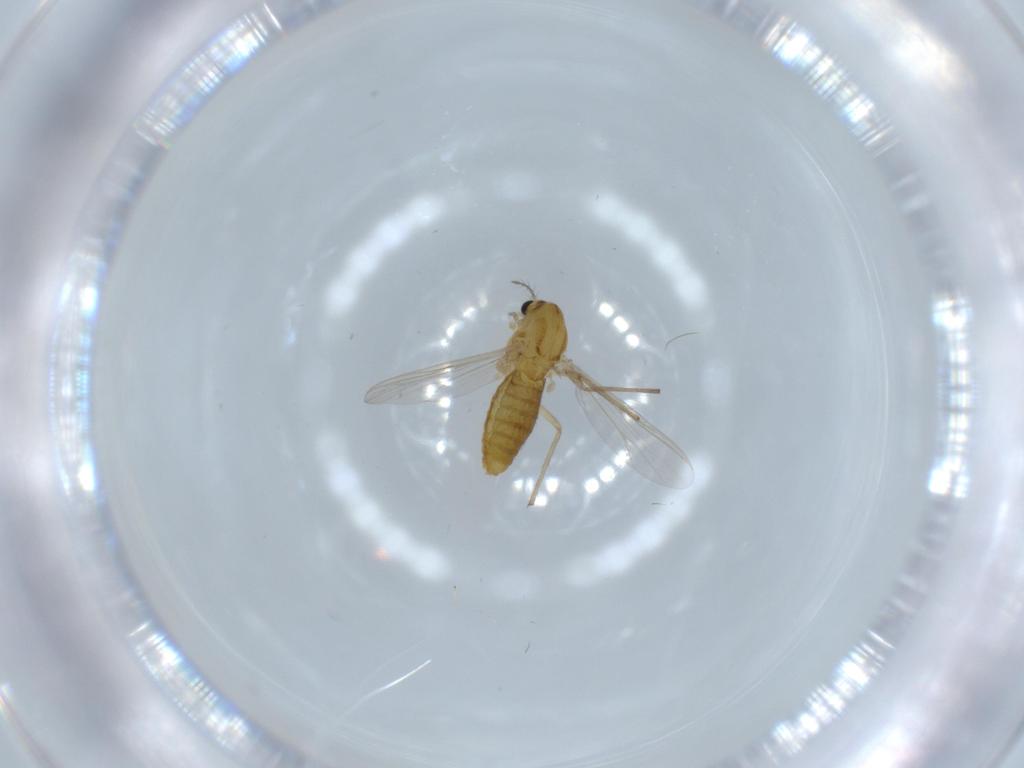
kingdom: Animalia
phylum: Arthropoda
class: Insecta
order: Diptera
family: Chironomidae
